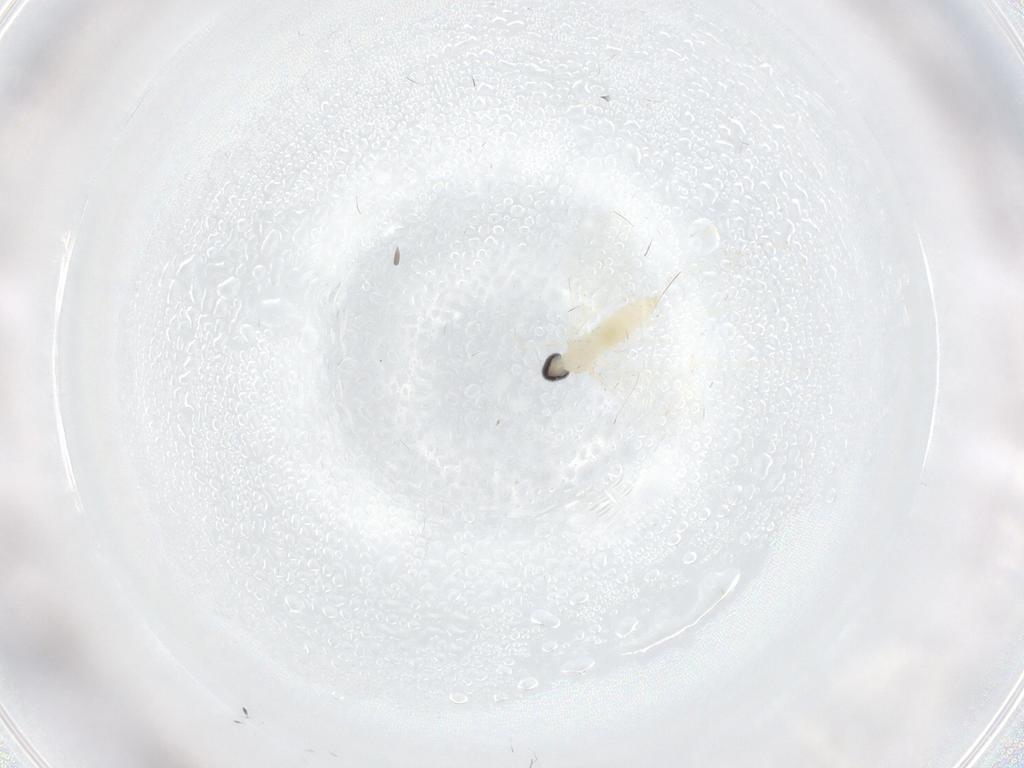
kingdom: Animalia
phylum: Arthropoda
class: Insecta
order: Diptera
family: Cecidomyiidae
